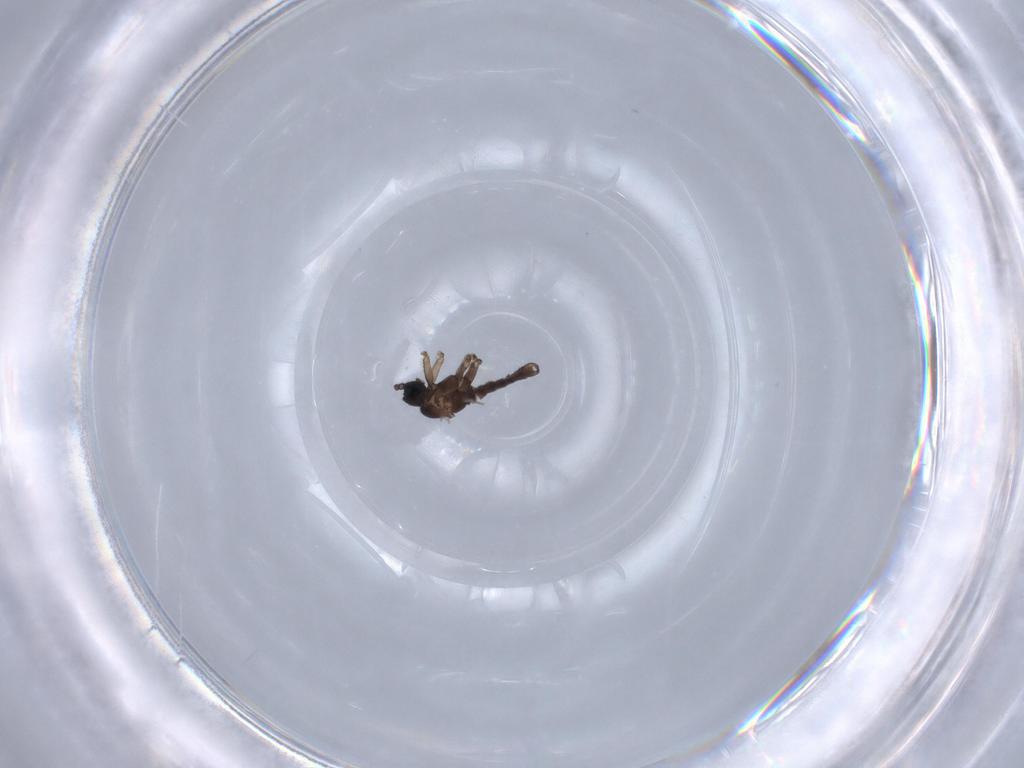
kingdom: Animalia
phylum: Arthropoda
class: Insecta
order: Diptera
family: Sciaridae
